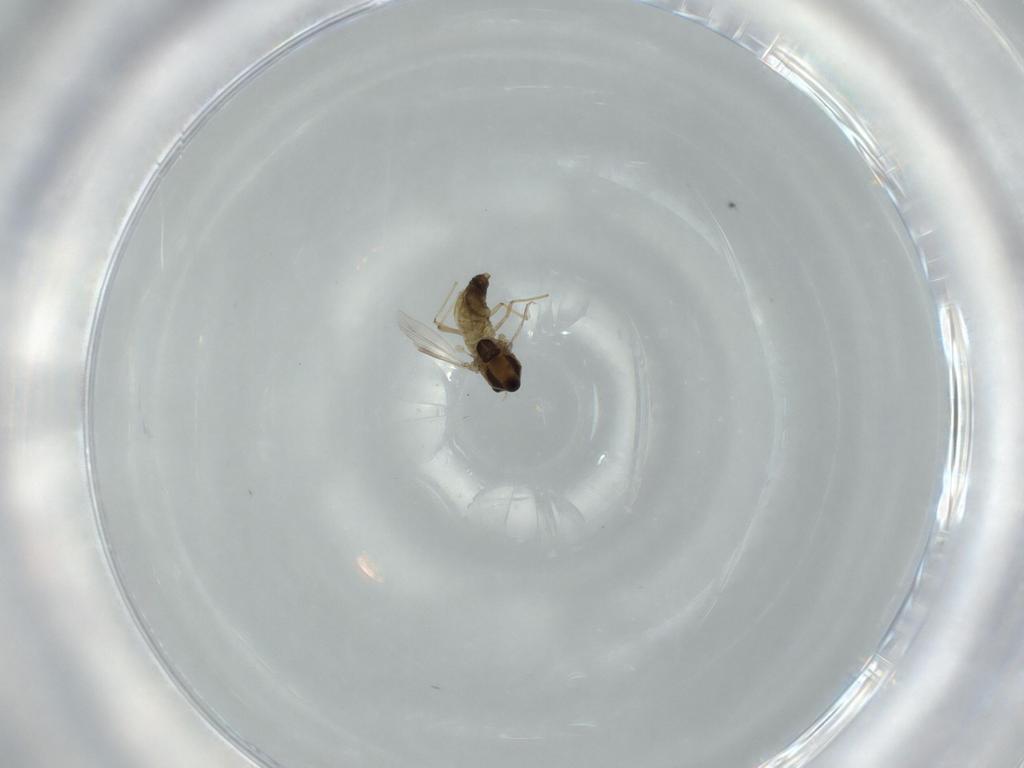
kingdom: Animalia
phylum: Arthropoda
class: Insecta
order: Diptera
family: Chironomidae
